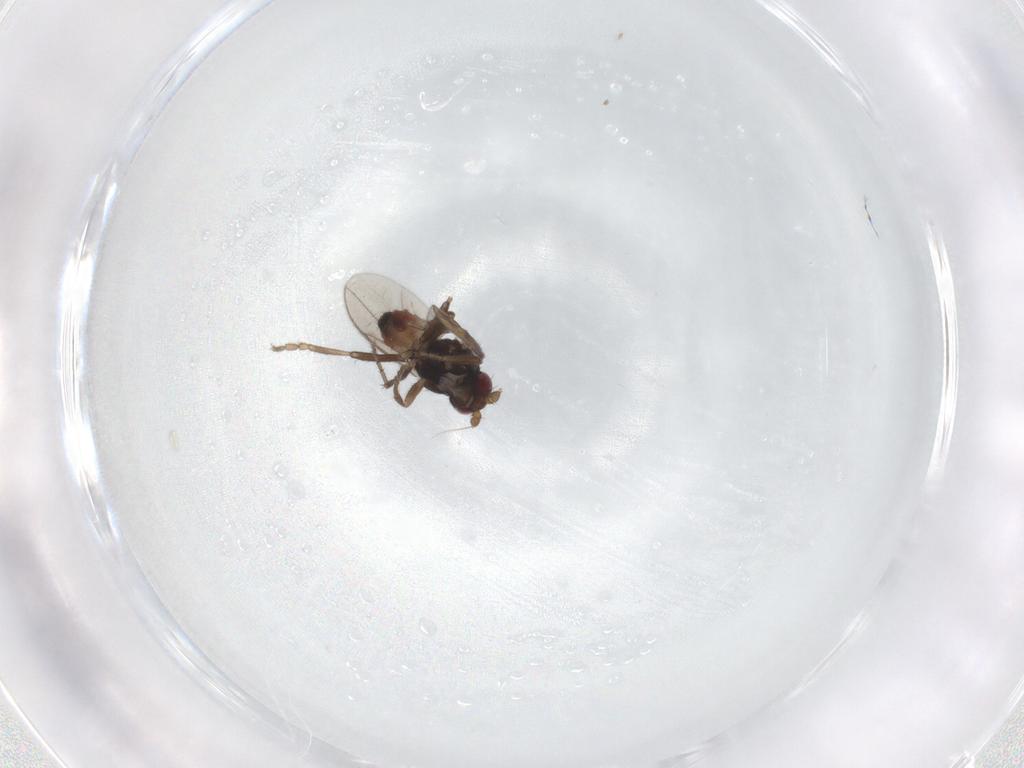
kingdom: Animalia
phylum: Arthropoda
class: Insecta
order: Diptera
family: Sphaeroceridae
